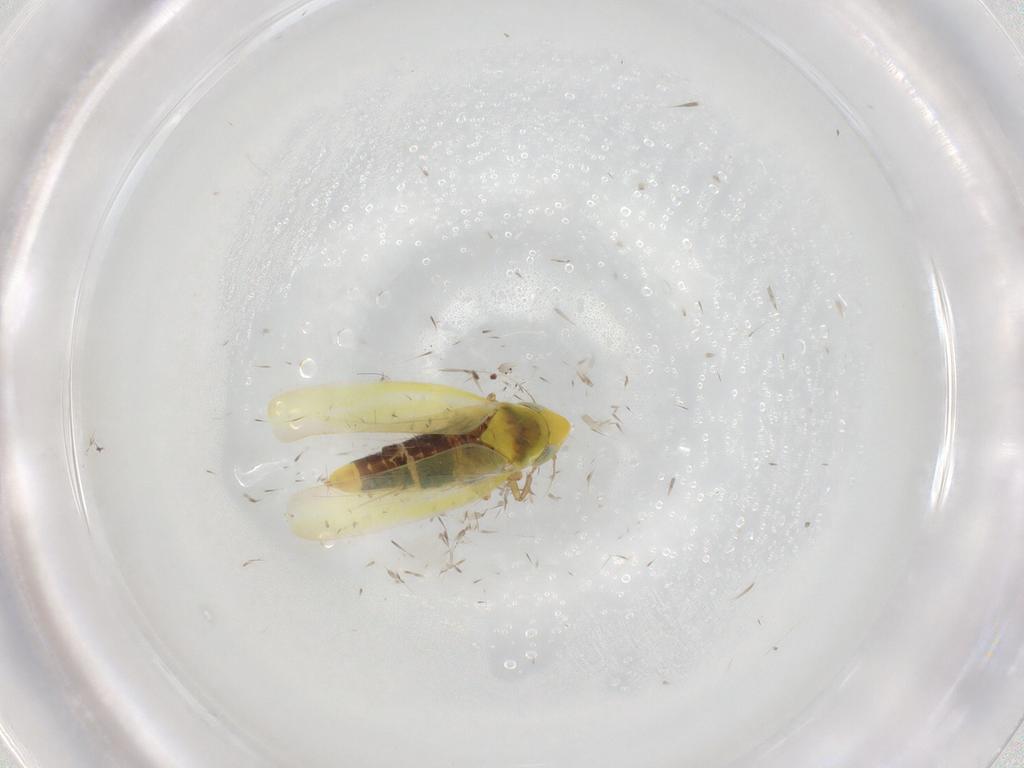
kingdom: Animalia
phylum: Arthropoda
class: Insecta
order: Hemiptera
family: Cicadellidae
